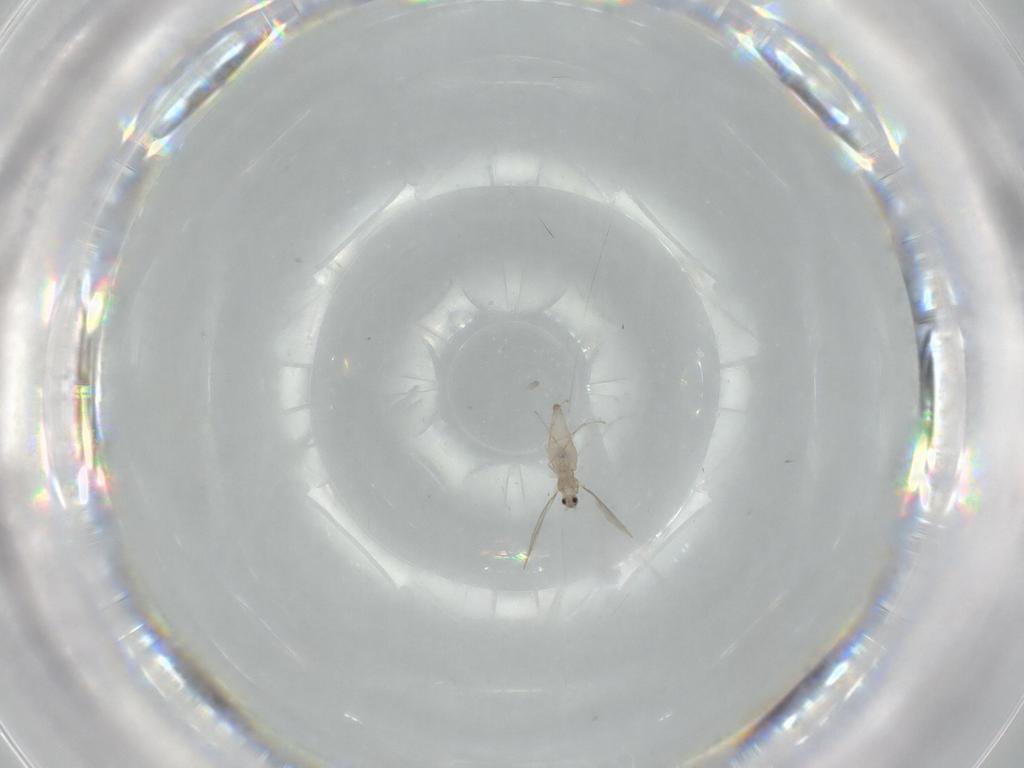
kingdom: Animalia
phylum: Arthropoda
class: Insecta
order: Diptera
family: Cecidomyiidae
